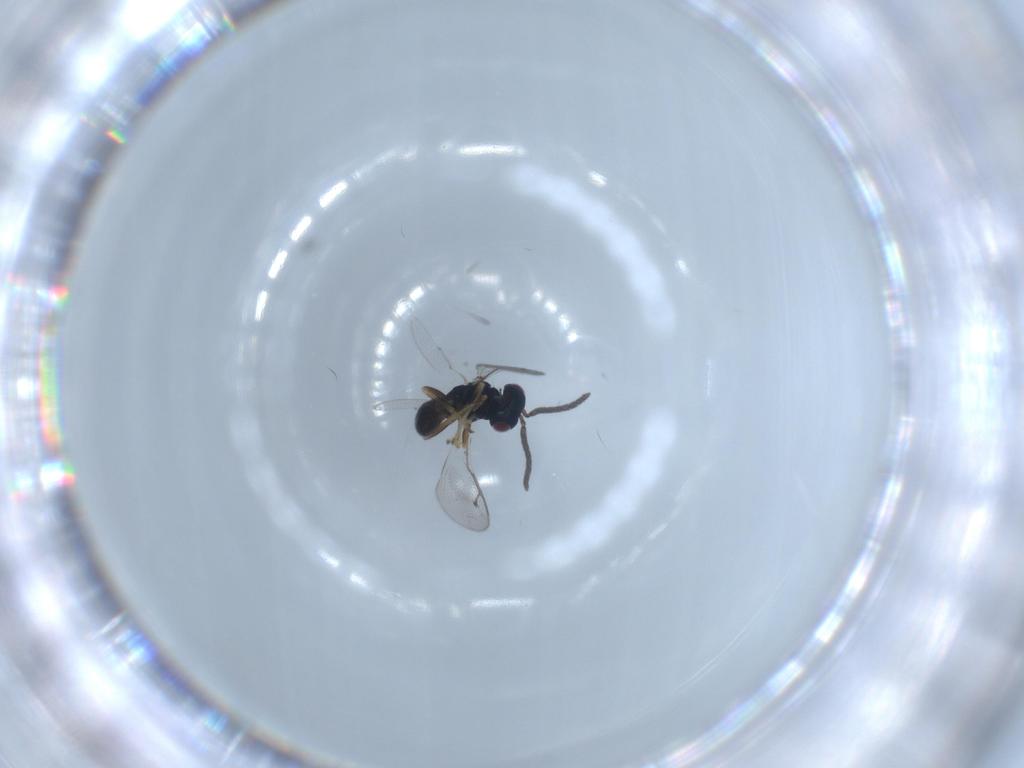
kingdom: Animalia
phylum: Arthropoda
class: Insecta
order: Hymenoptera
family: Pteromalidae
